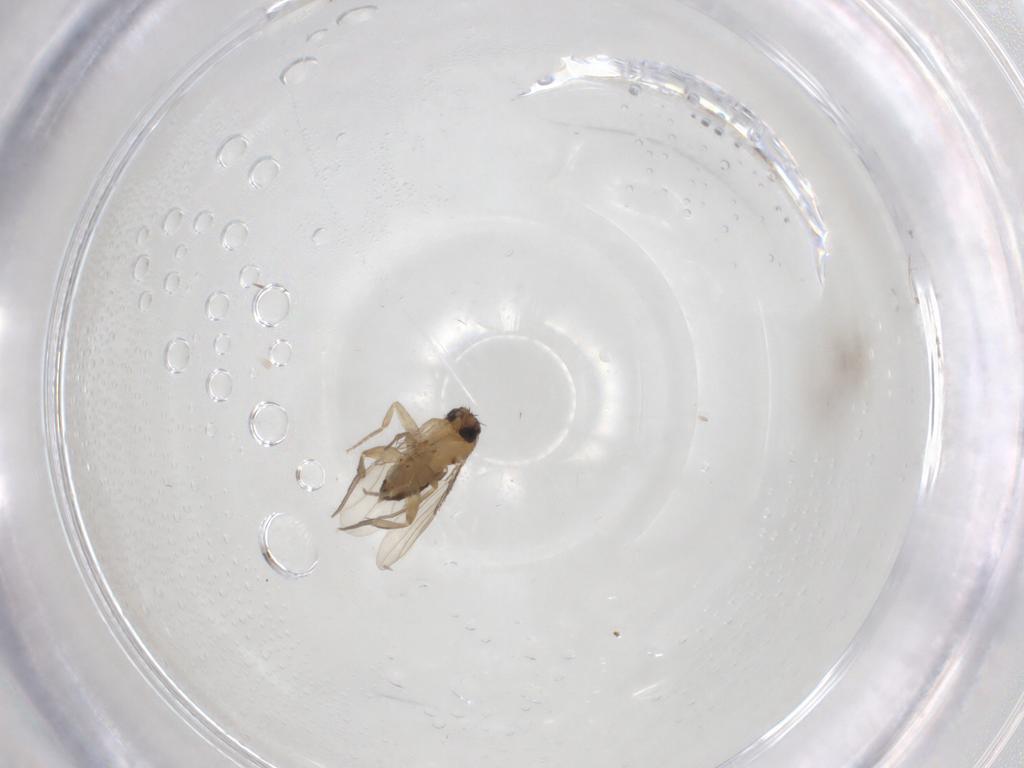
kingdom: Animalia
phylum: Arthropoda
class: Insecta
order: Diptera
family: Phoridae
